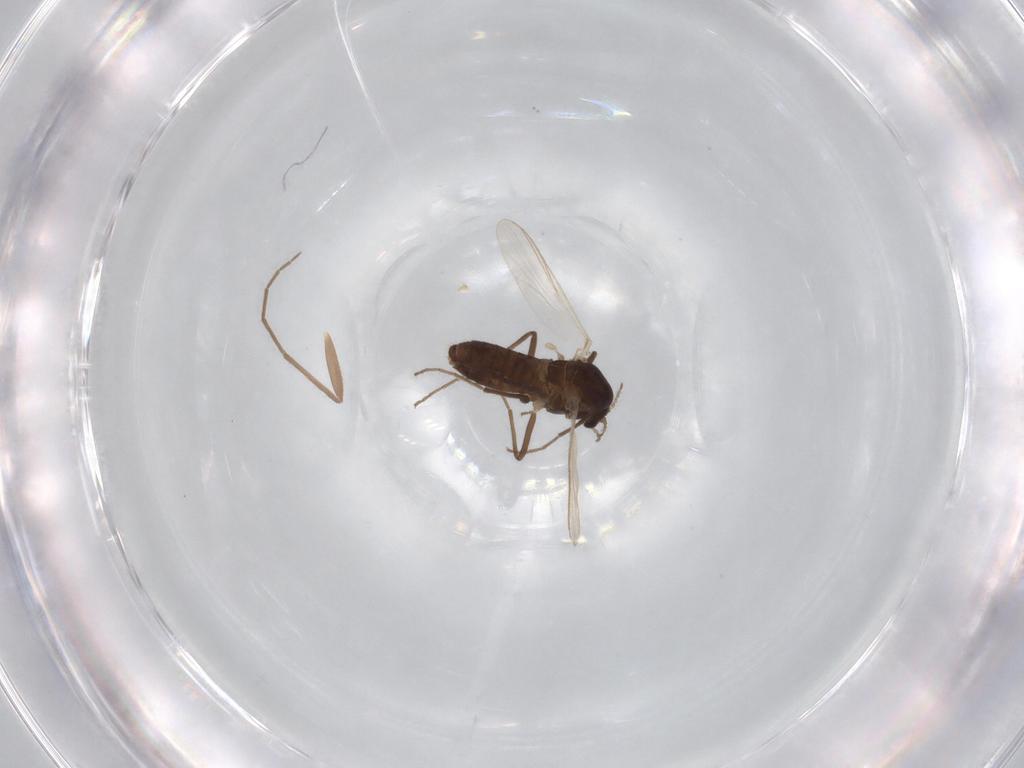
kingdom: Animalia
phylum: Arthropoda
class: Insecta
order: Diptera
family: Chironomidae
